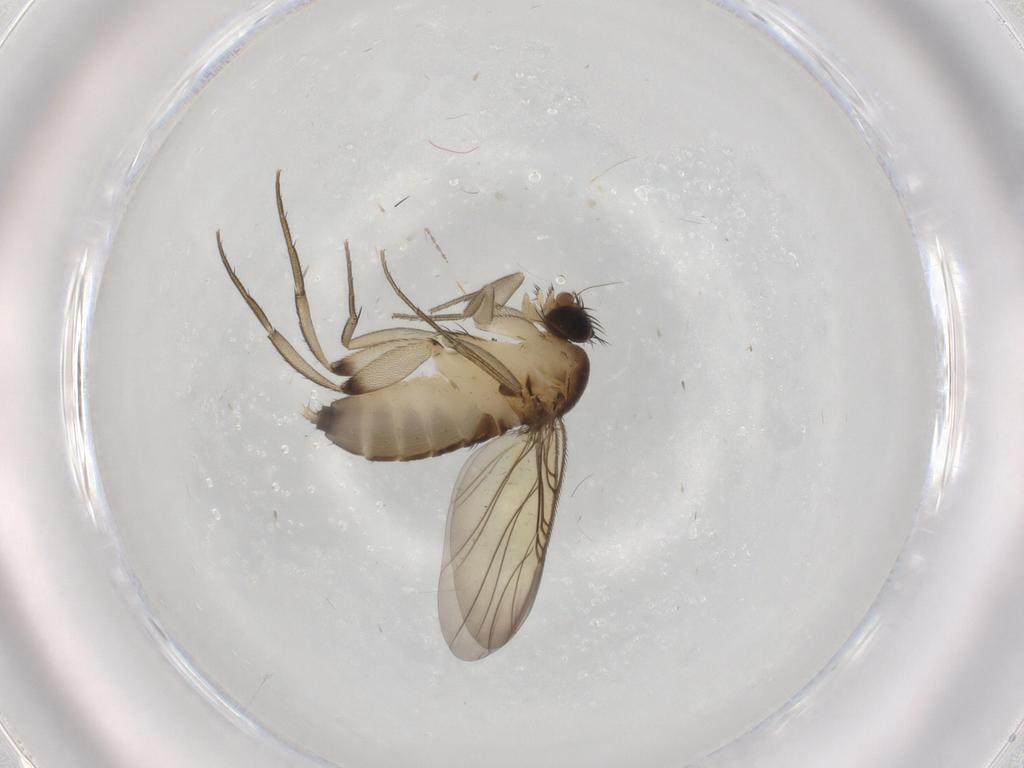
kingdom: Animalia
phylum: Arthropoda
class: Insecta
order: Diptera
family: Phoridae
